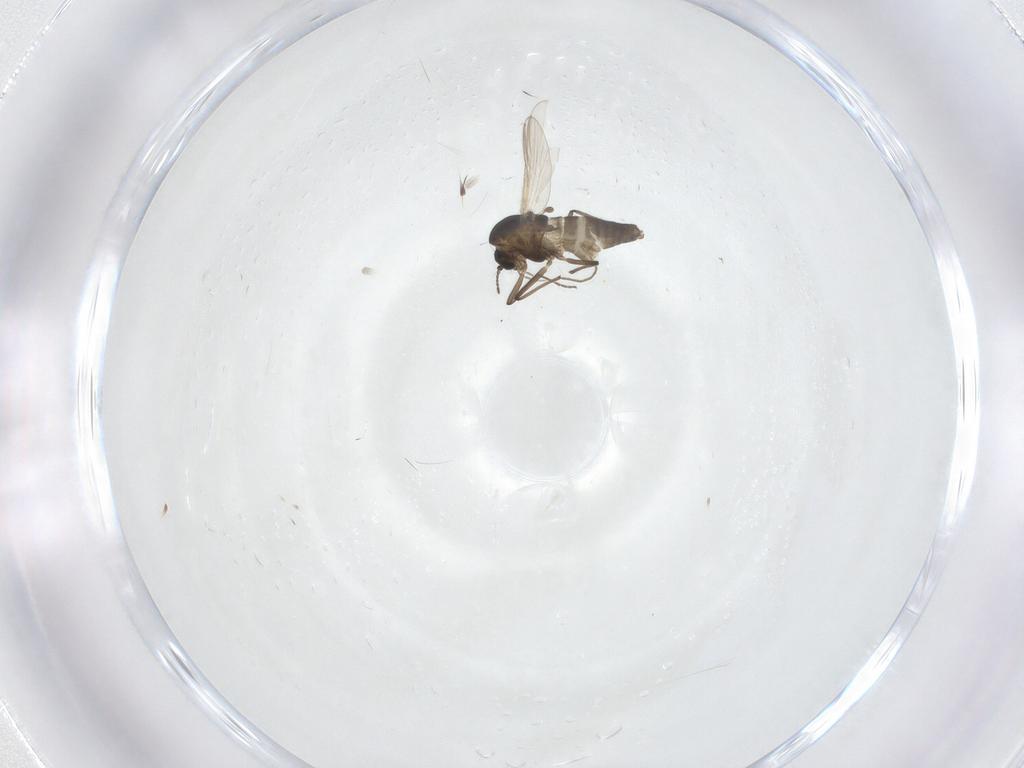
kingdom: Animalia
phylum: Arthropoda
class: Insecta
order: Diptera
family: Chironomidae
